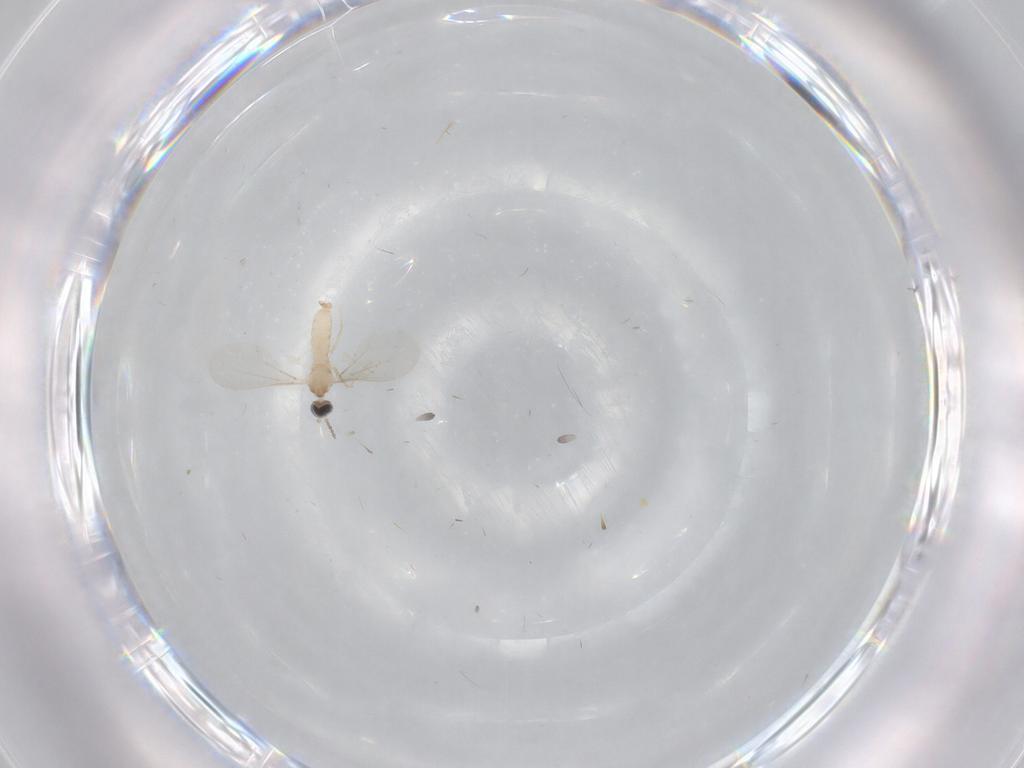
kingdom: Animalia
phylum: Arthropoda
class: Insecta
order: Diptera
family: Cecidomyiidae
